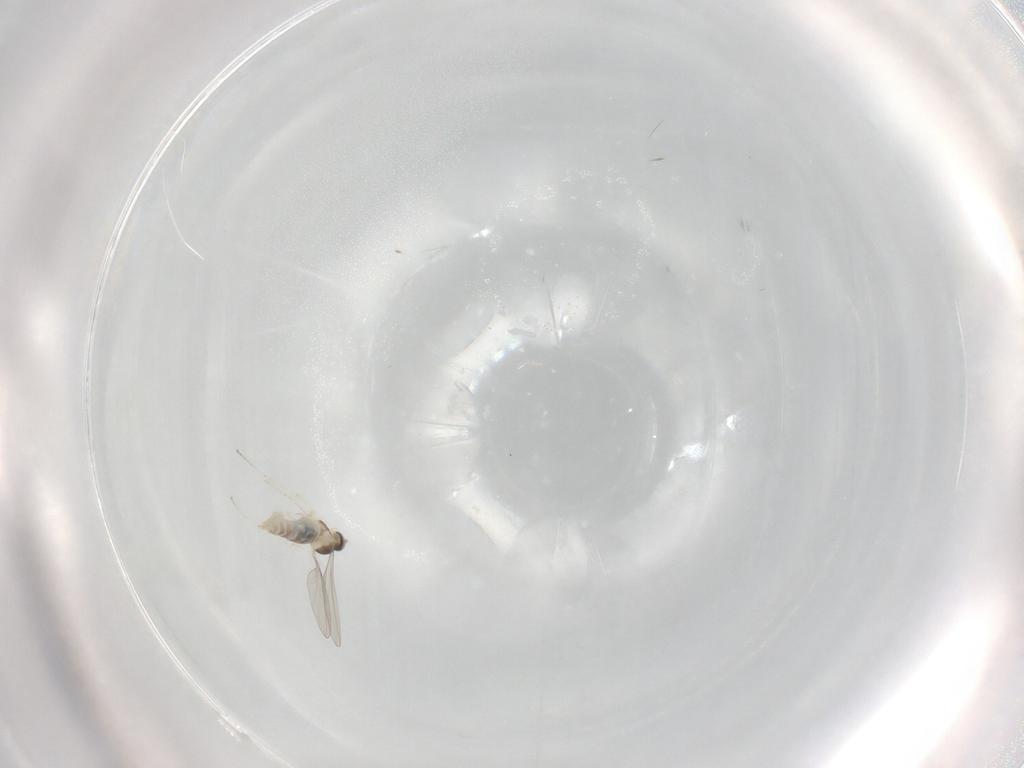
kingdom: Animalia
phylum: Arthropoda
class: Insecta
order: Diptera
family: Cecidomyiidae
